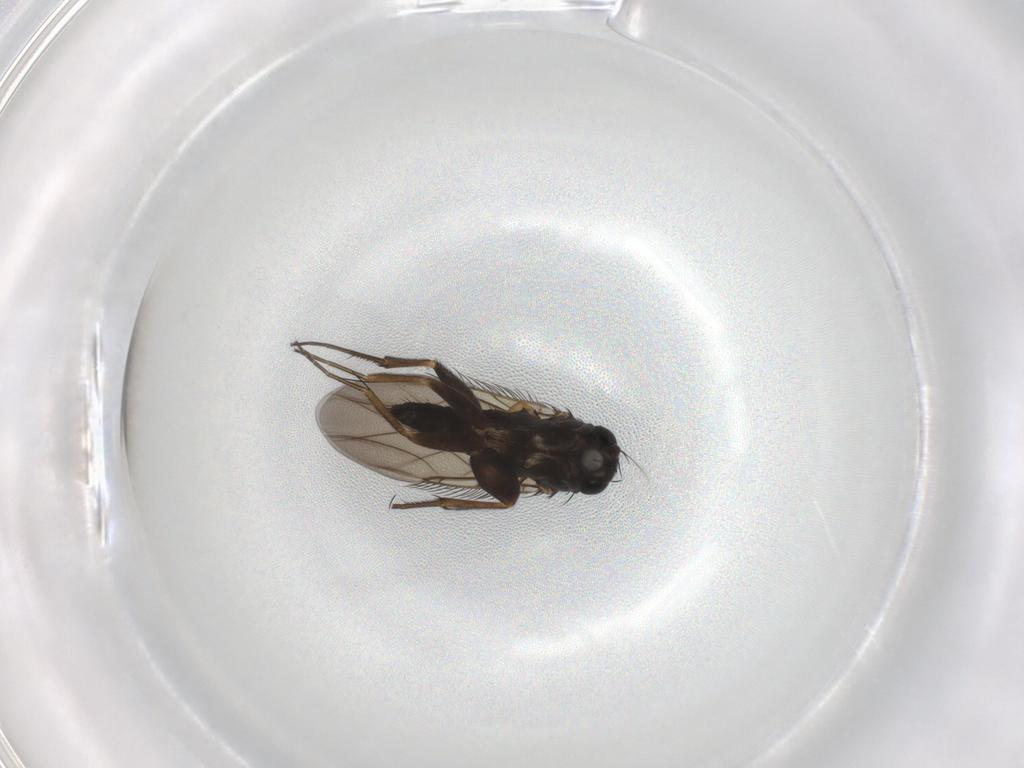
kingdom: Animalia
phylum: Arthropoda
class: Insecta
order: Diptera
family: Phoridae
